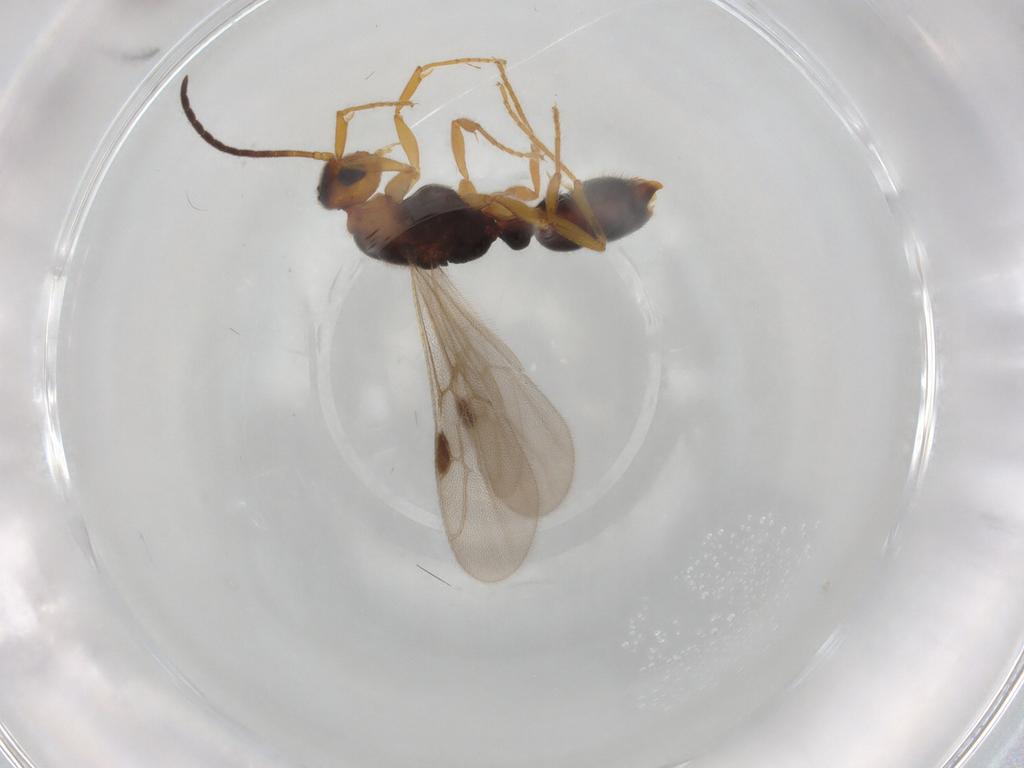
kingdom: Animalia
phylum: Arthropoda
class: Insecta
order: Hymenoptera
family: Formicidae
